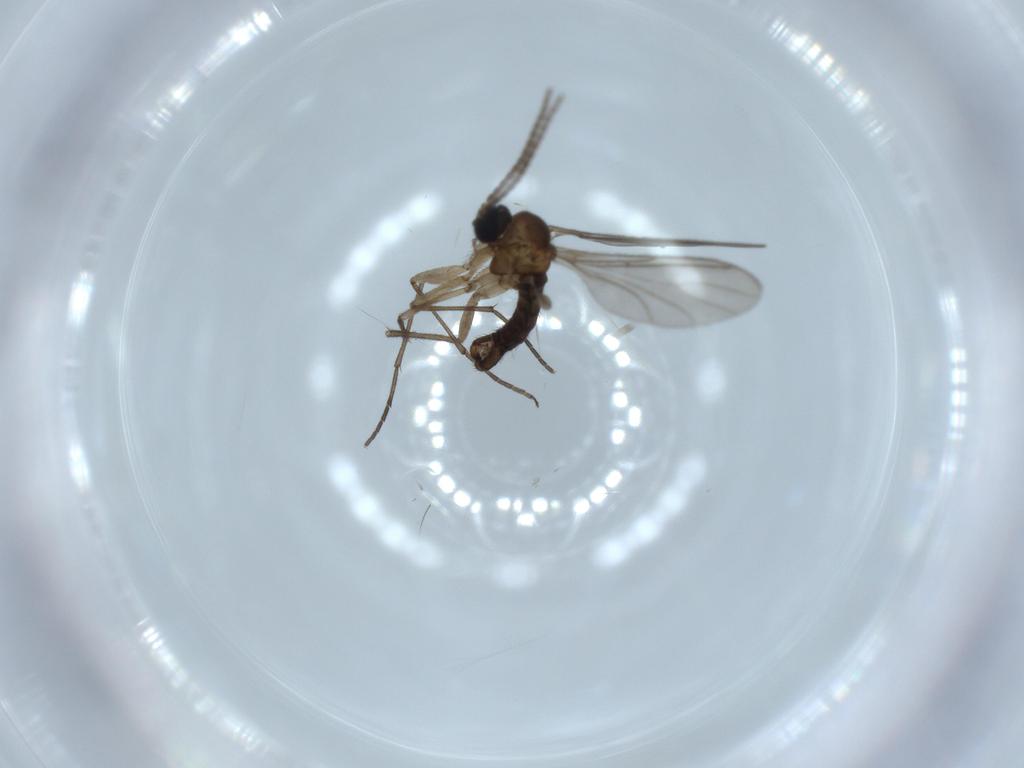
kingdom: Animalia
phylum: Arthropoda
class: Insecta
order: Diptera
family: Sciaridae
